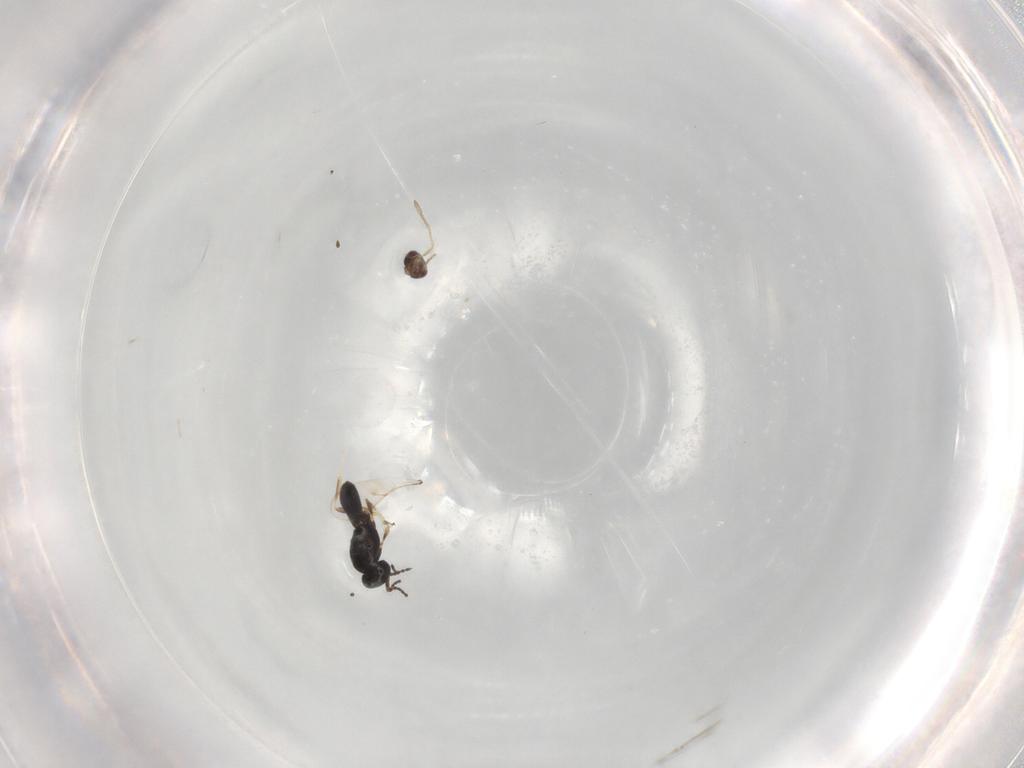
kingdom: Animalia
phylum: Arthropoda
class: Insecta
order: Hymenoptera
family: Scelionidae
